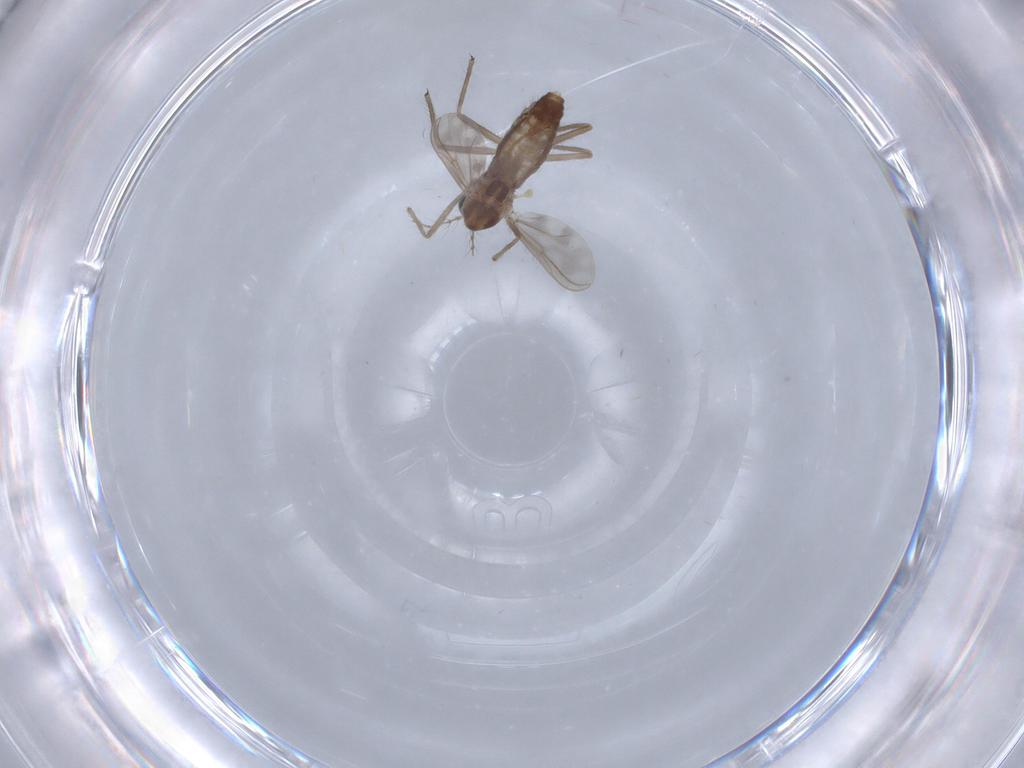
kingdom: Animalia
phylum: Arthropoda
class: Insecta
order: Diptera
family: Chironomidae
